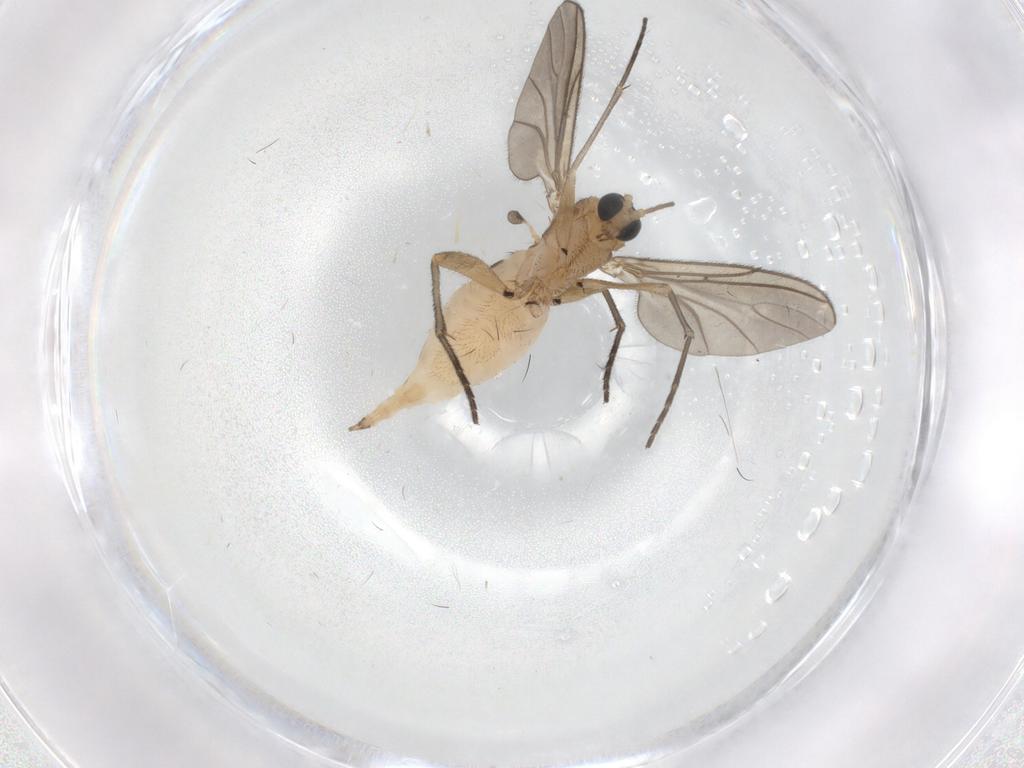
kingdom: Animalia
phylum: Arthropoda
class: Insecta
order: Diptera
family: Sciaridae
